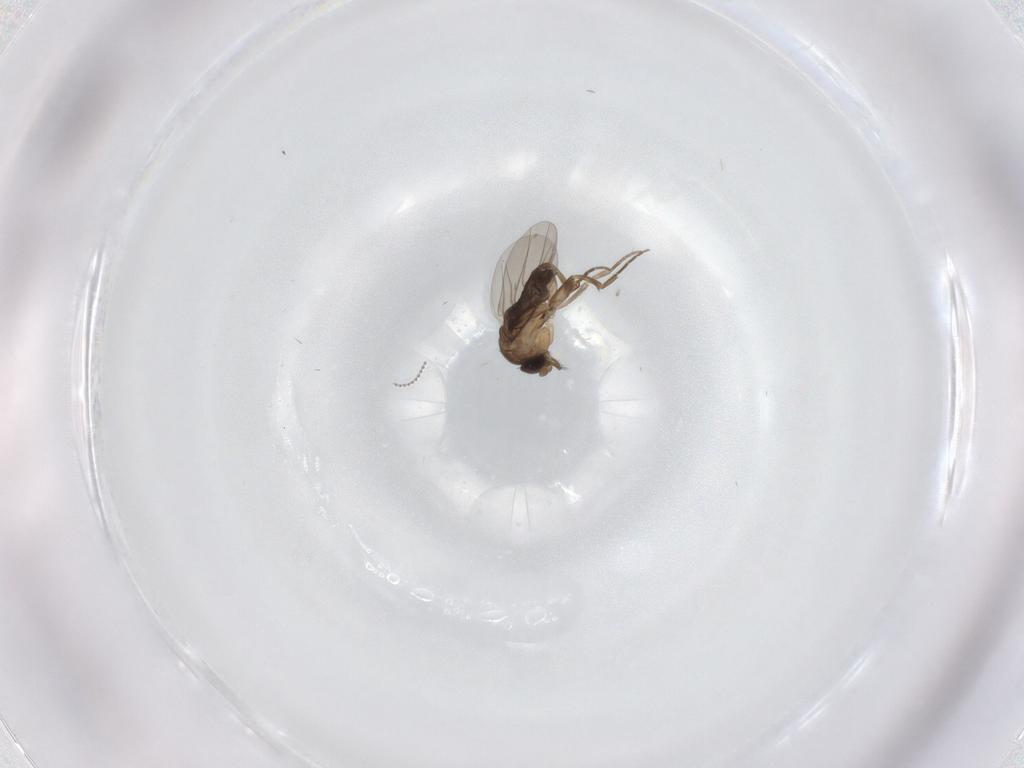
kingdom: Animalia
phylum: Arthropoda
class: Insecta
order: Diptera
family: Phoridae
